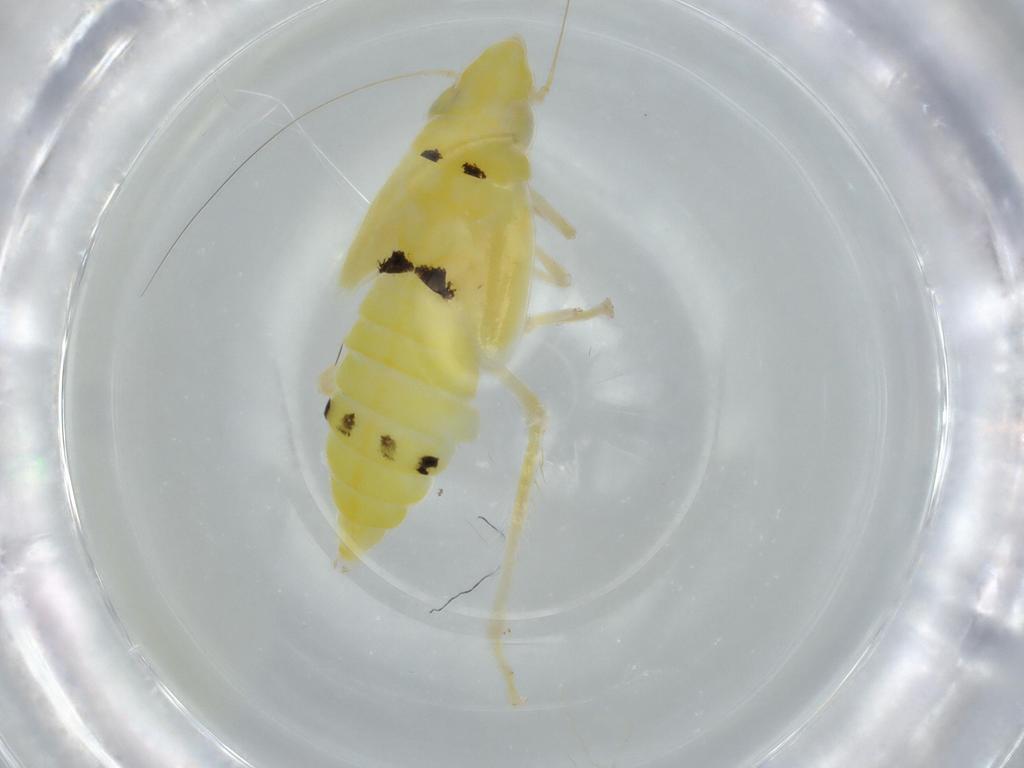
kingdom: Animalia
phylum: Arthropoda
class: Insecta
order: Hemiptera
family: Cicadellidae
